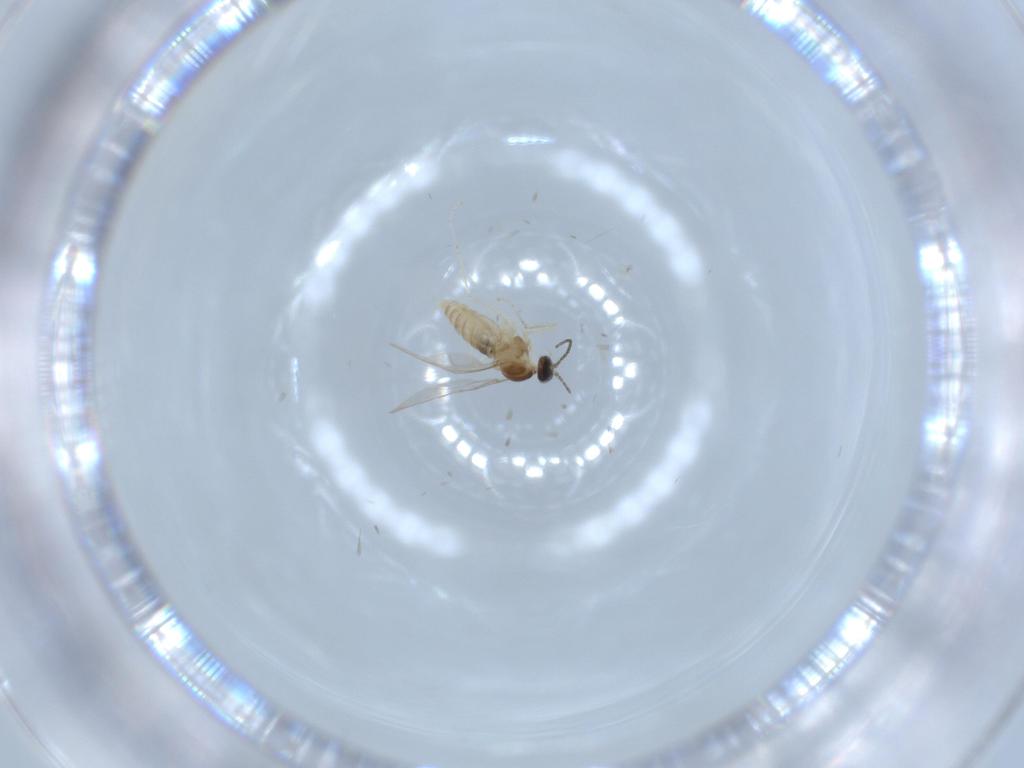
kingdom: Animalia
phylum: Arthropoda
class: Insecta
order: Diptera
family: Cecidomyiidae
